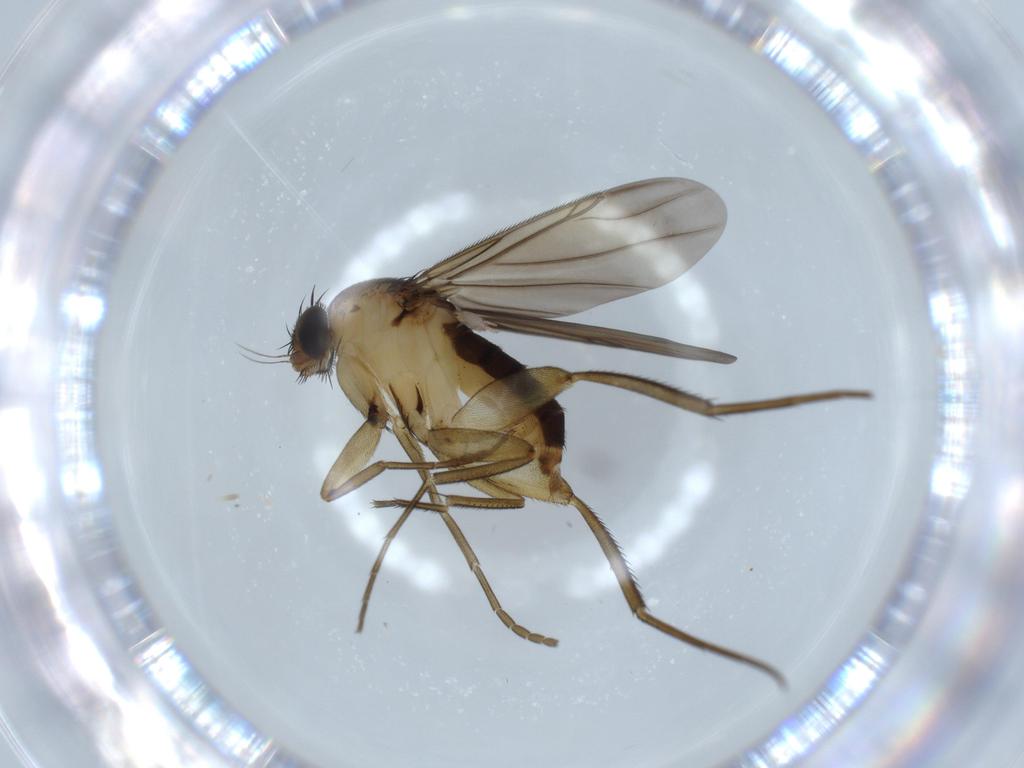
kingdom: Animalia
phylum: Arthropoda
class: Insecta
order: Diptera
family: Phoridae
